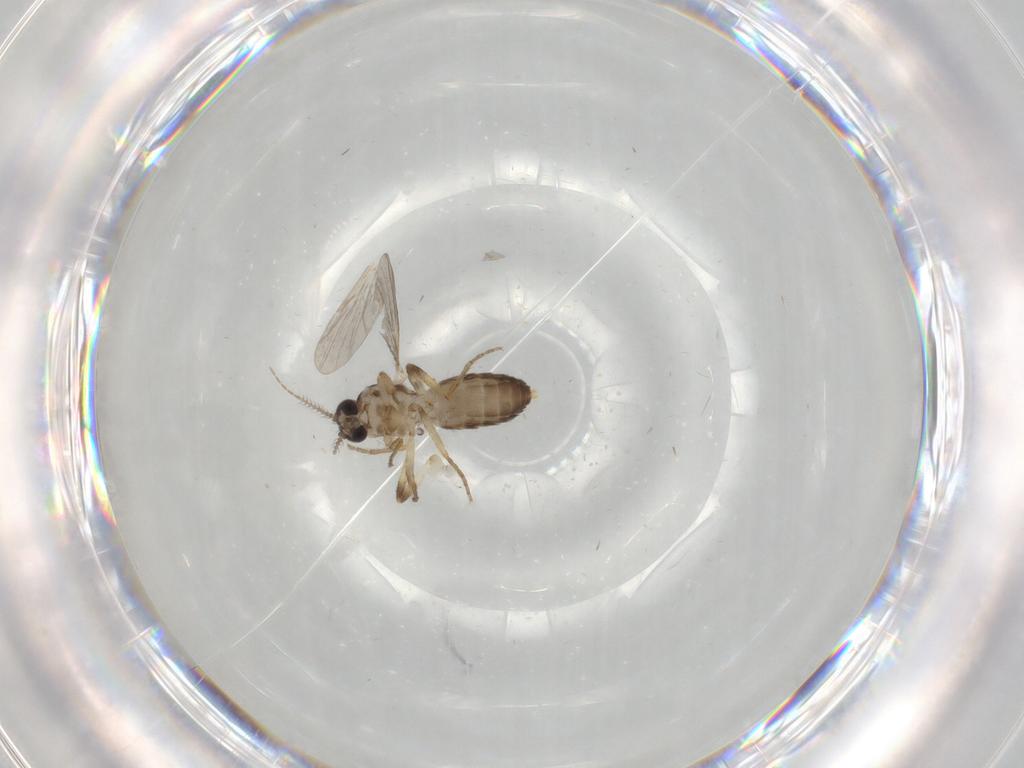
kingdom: Animalia
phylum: Arthropoda
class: Insecta
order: Diptera
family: Ceratopogonidae
